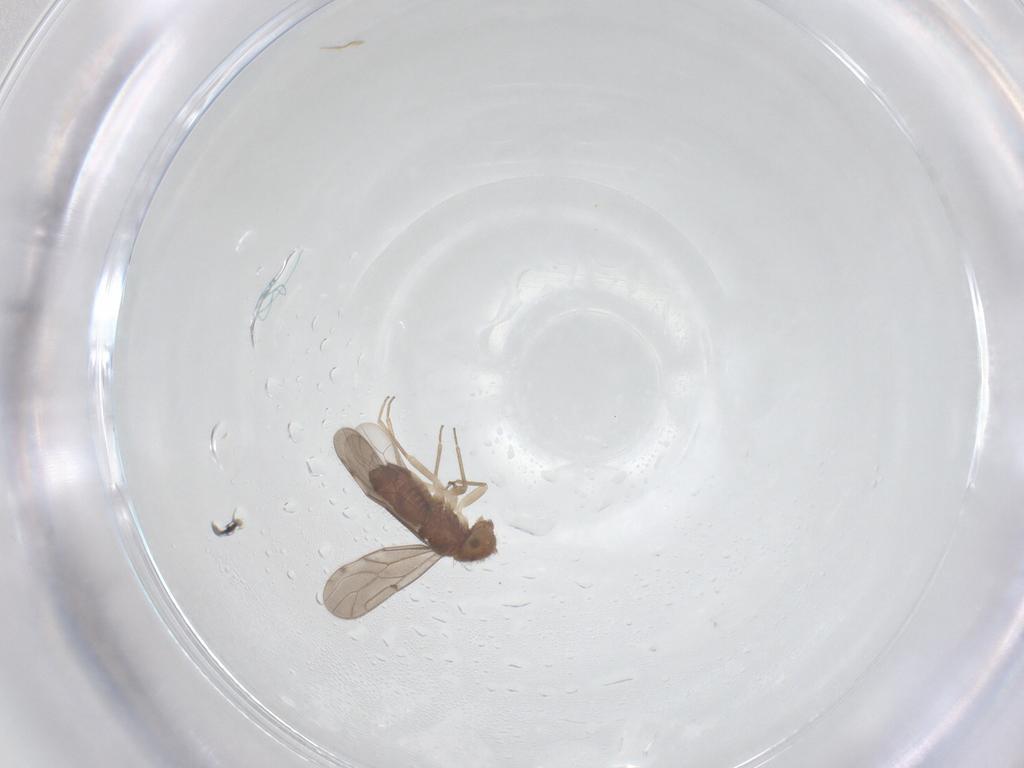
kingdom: Animalia
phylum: Arthropoda
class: Insecta
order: Psocodea
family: Ectopsocidae
